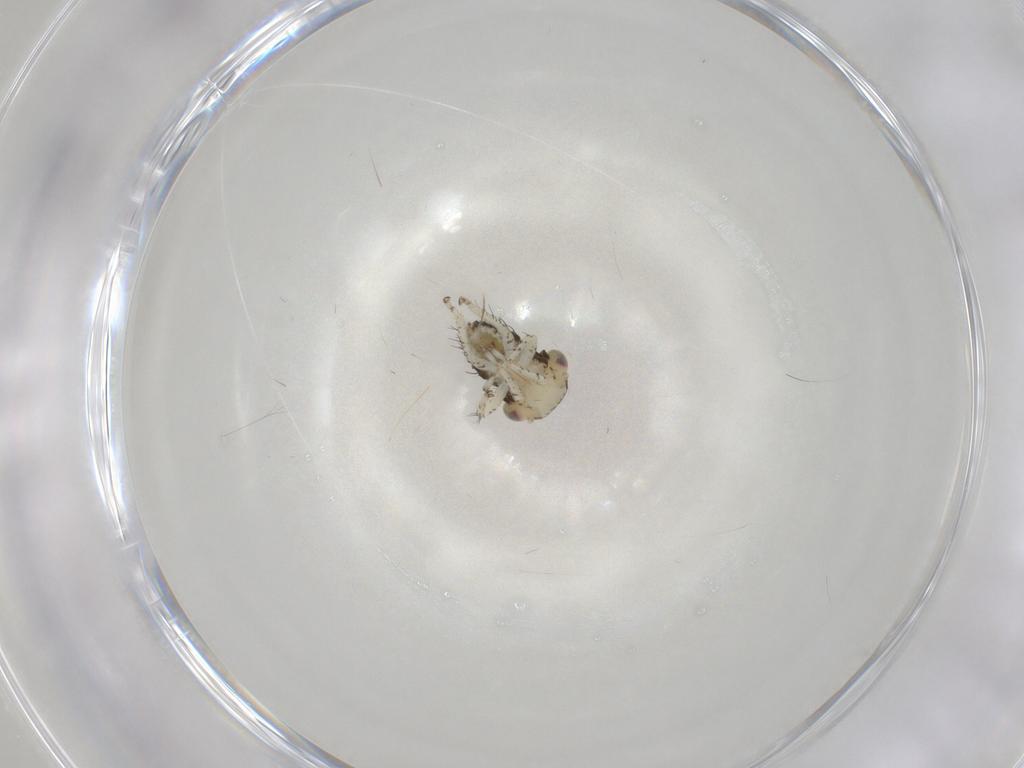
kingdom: Animalia
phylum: Arthropoda
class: Insecta
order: Hemiptera
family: Cicadellidae
